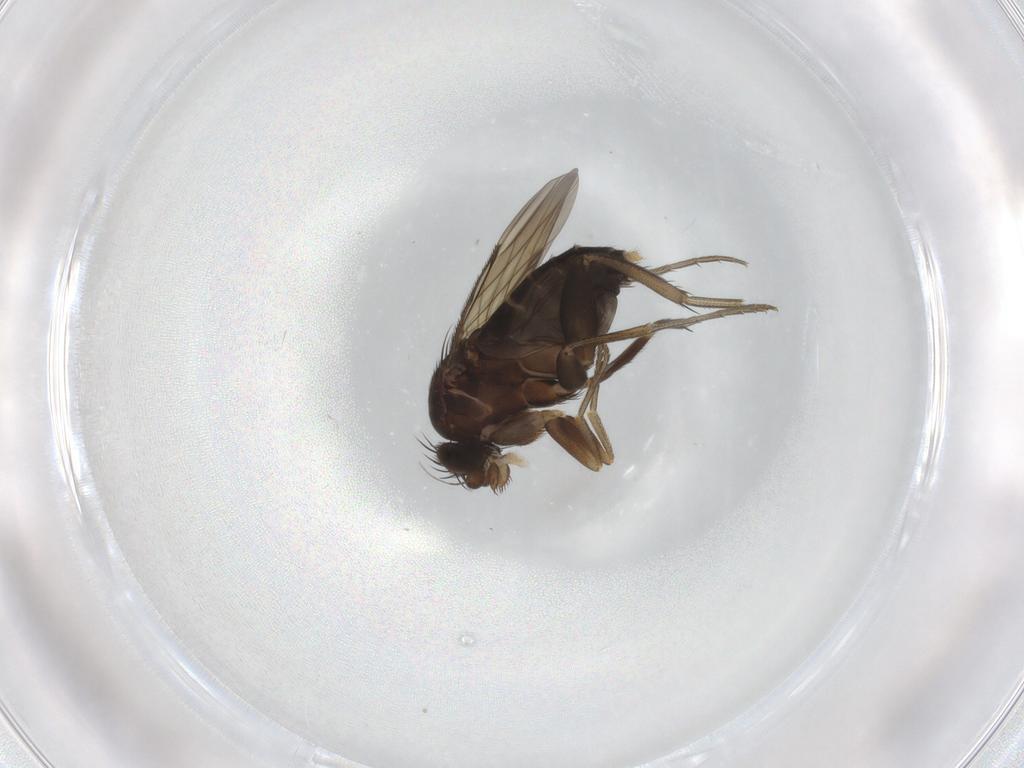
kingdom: Animalia
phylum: Arthropoda
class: Insecta
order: Diptera
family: Phoridae
